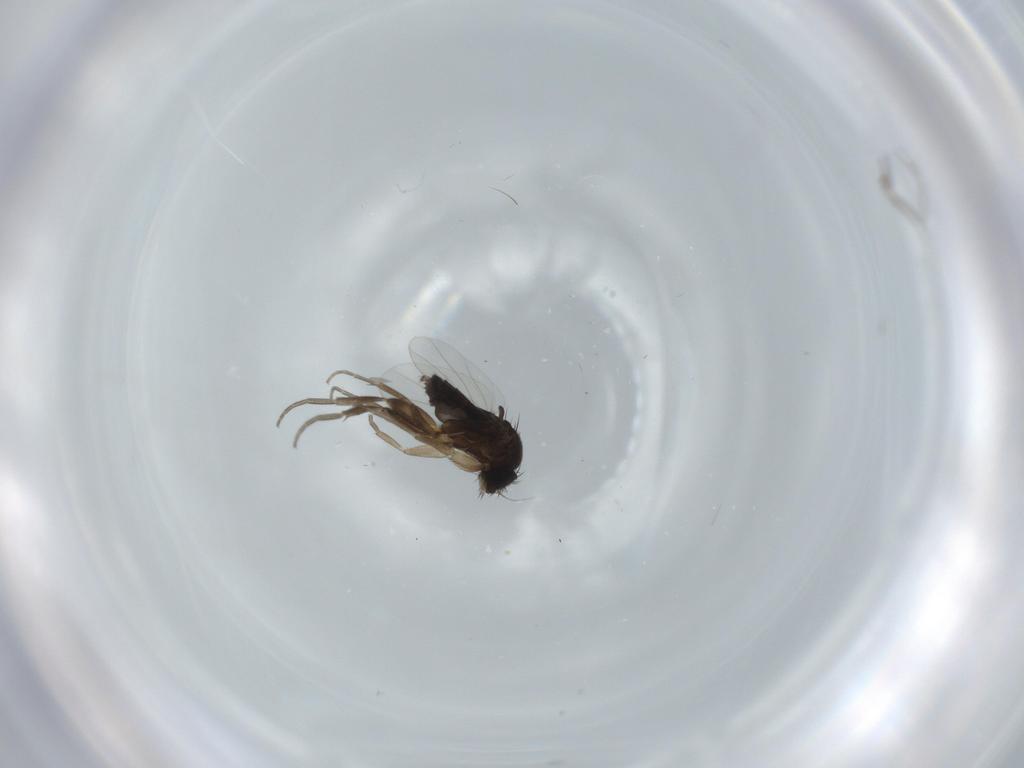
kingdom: Animalia
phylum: Arthropoda
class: Insecta
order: Diptera
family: Phoridae
